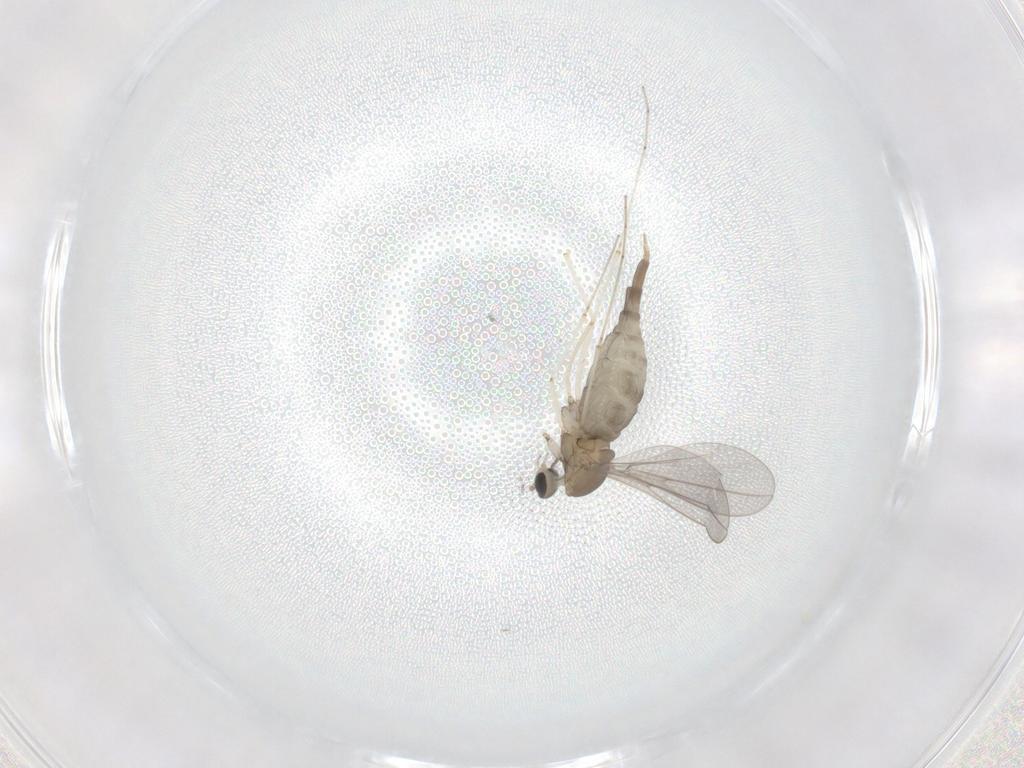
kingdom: Animalia
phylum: Arthropoda
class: Insecta
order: Diptera
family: Cecidomyiidae
